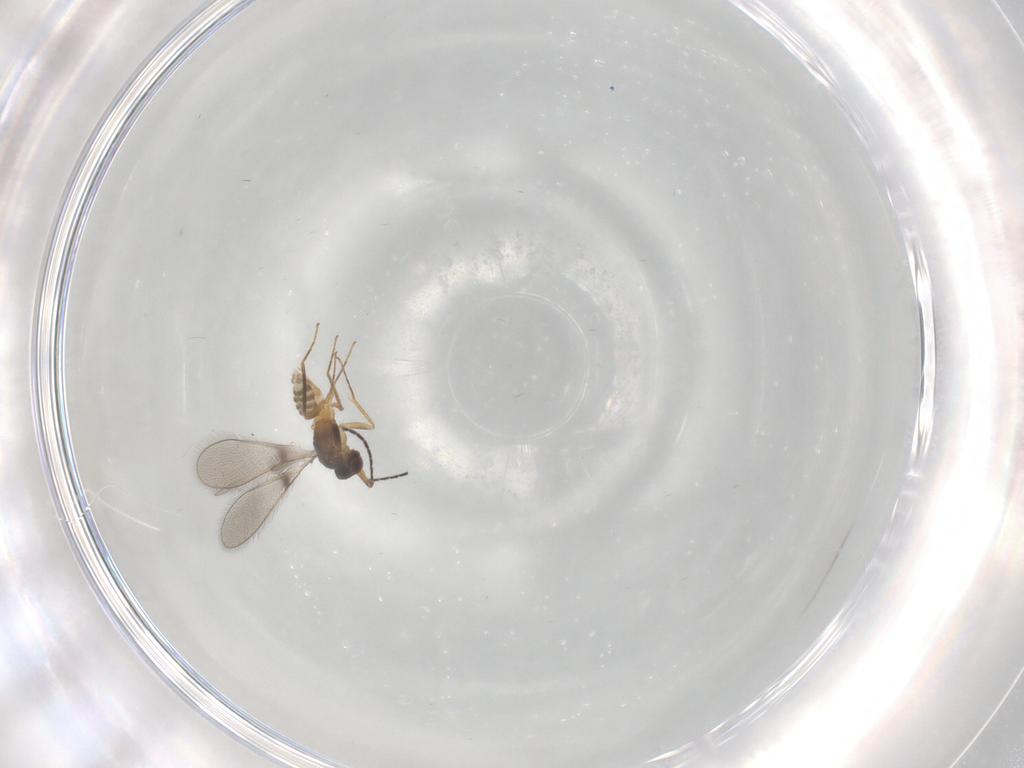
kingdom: Animalia
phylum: Arthropoda
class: Insecta
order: Hymenoptera
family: Mymaridae
